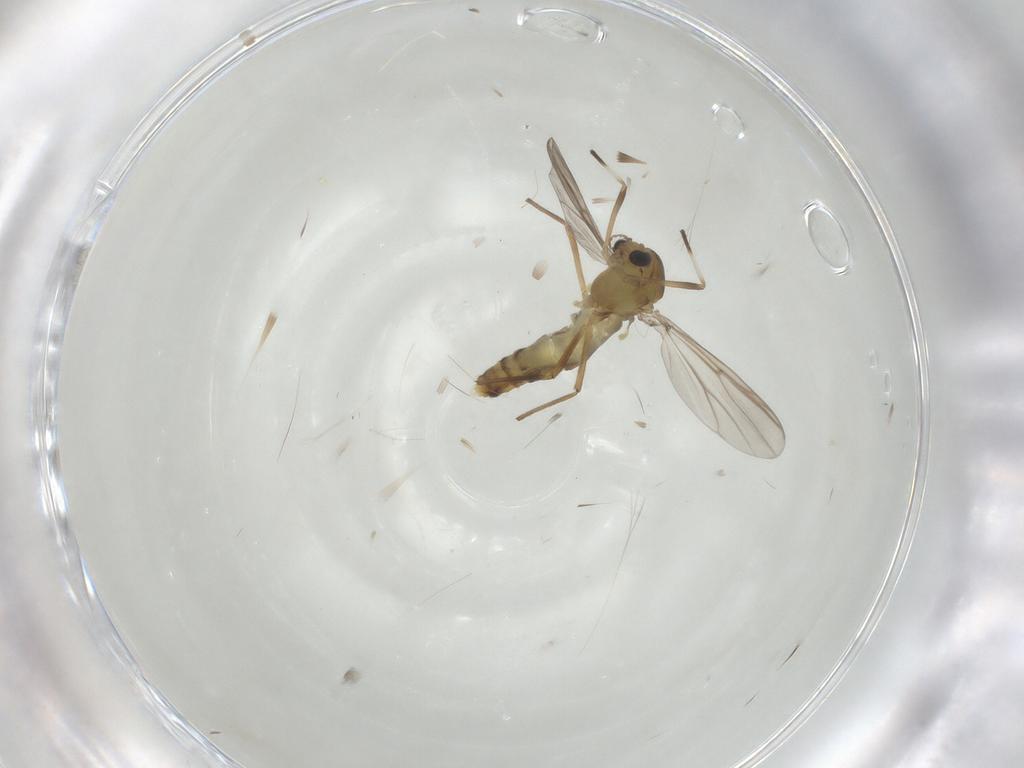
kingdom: Animalia
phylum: Arthropoda
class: Insecta
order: Diptera
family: Chironomidae
